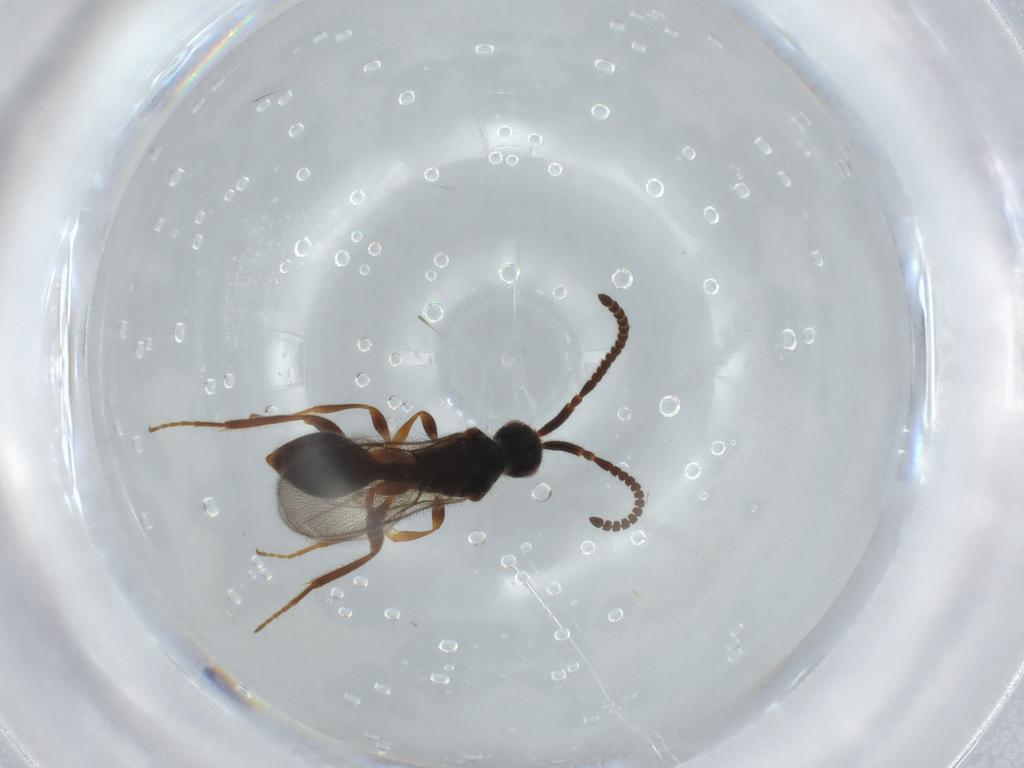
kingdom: Animalia
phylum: Arthropoda
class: Insecta
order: Hymenoptera
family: Diapriidae
